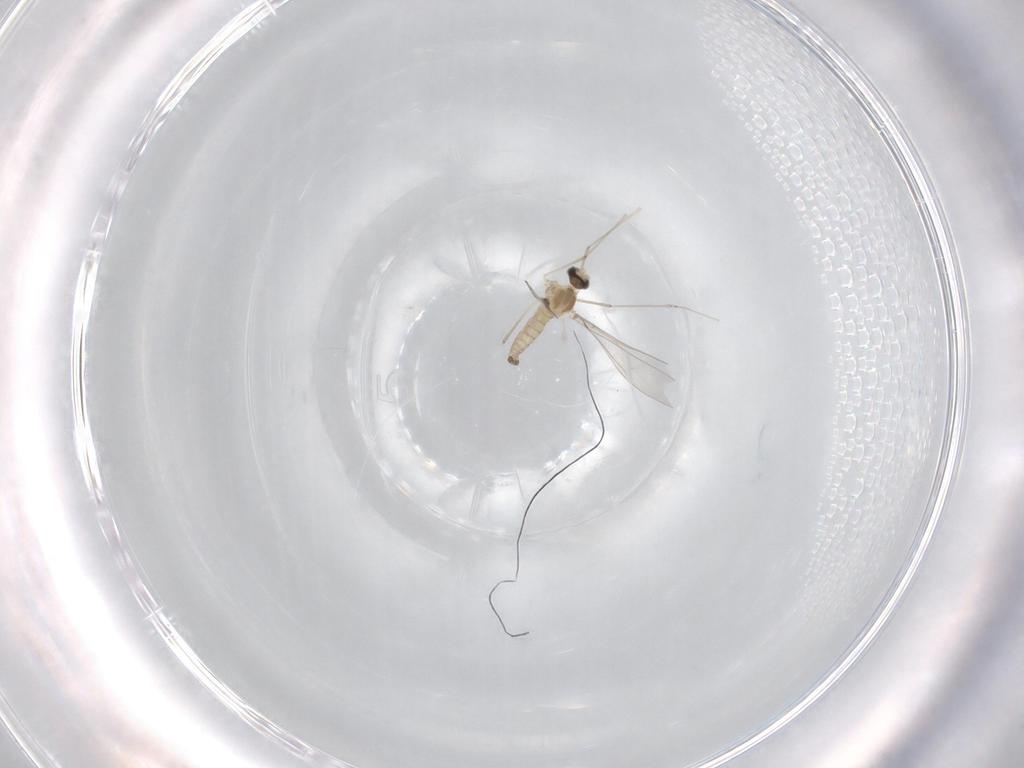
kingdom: Animalia
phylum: Arthropoda
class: Insecta
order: Diptera
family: Cecidomyiidae
